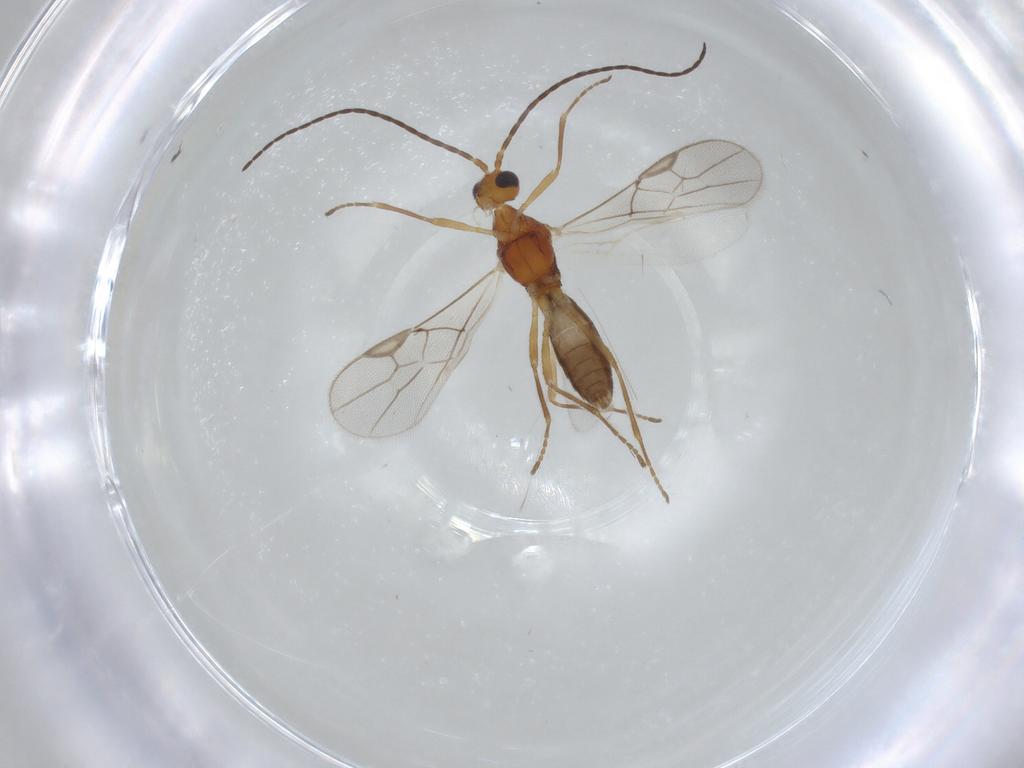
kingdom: Animalia
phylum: Arthropoda
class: Insecta
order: Hymenoptera
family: Braconidae
